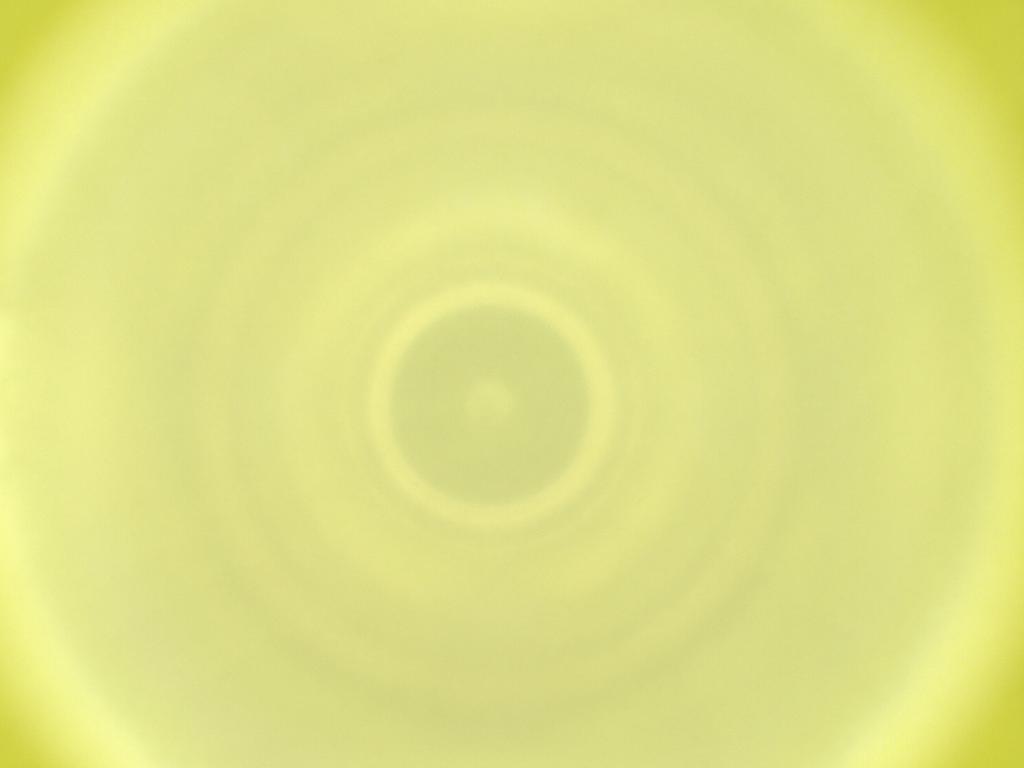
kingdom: Animalia
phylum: Arthropoda
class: Insecta
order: Diptera
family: Cecidomyiidae
